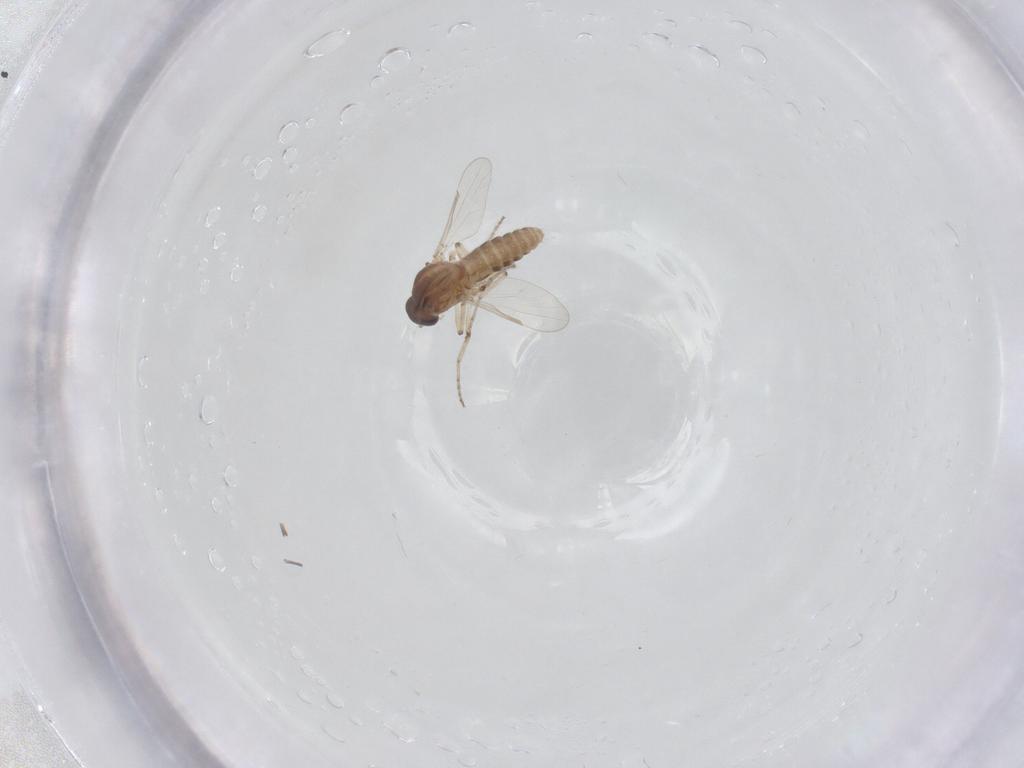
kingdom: Animalia
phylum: Arthropoda
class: Insecta
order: Diptera
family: Ceratopogonidae
